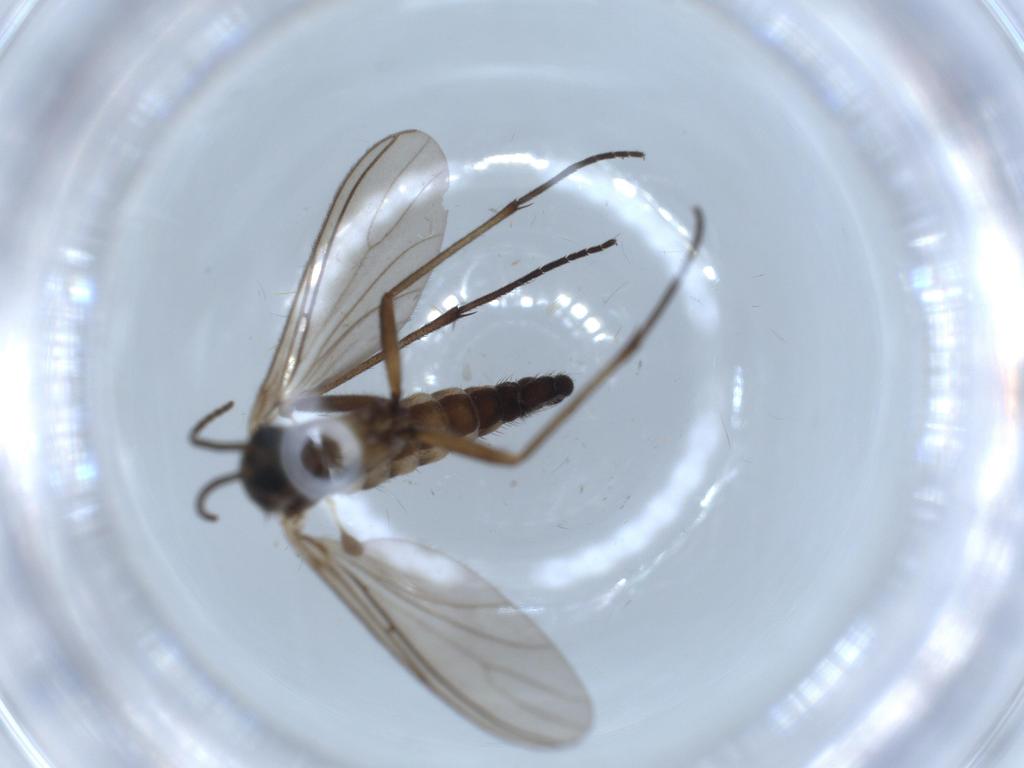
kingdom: Animalia
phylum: Arthropoda
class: Insecta
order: Diptera
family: Sciaridae
